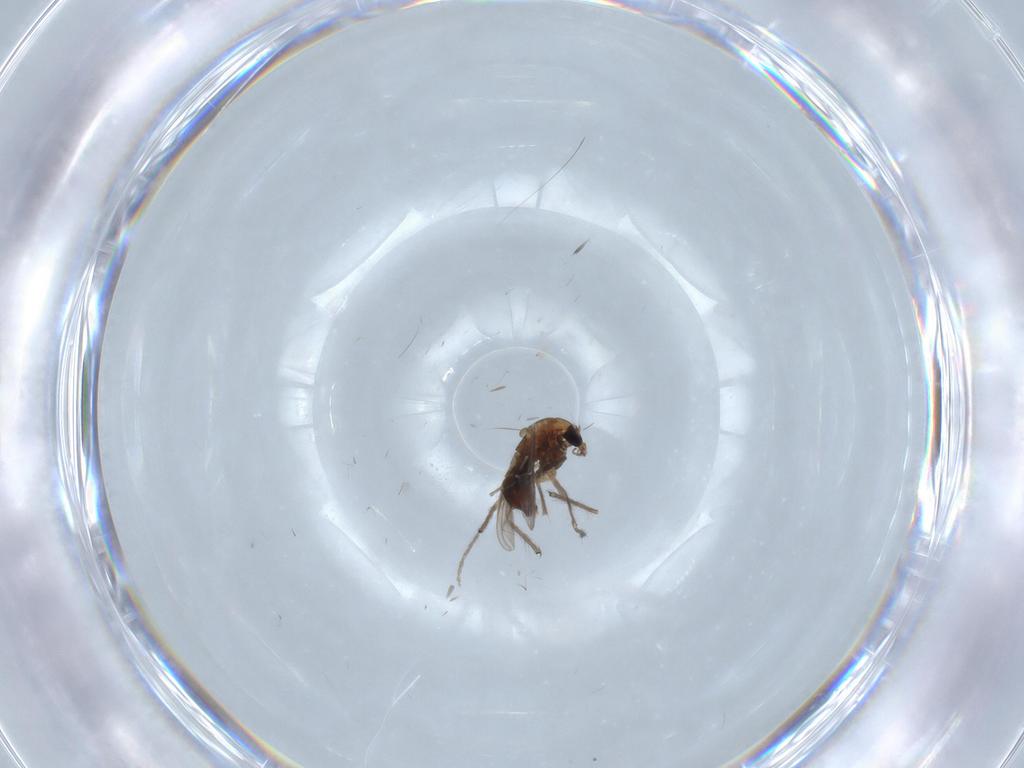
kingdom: Animalia
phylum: Arthropoda
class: Insecta
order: Diptera
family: Chironomidae
